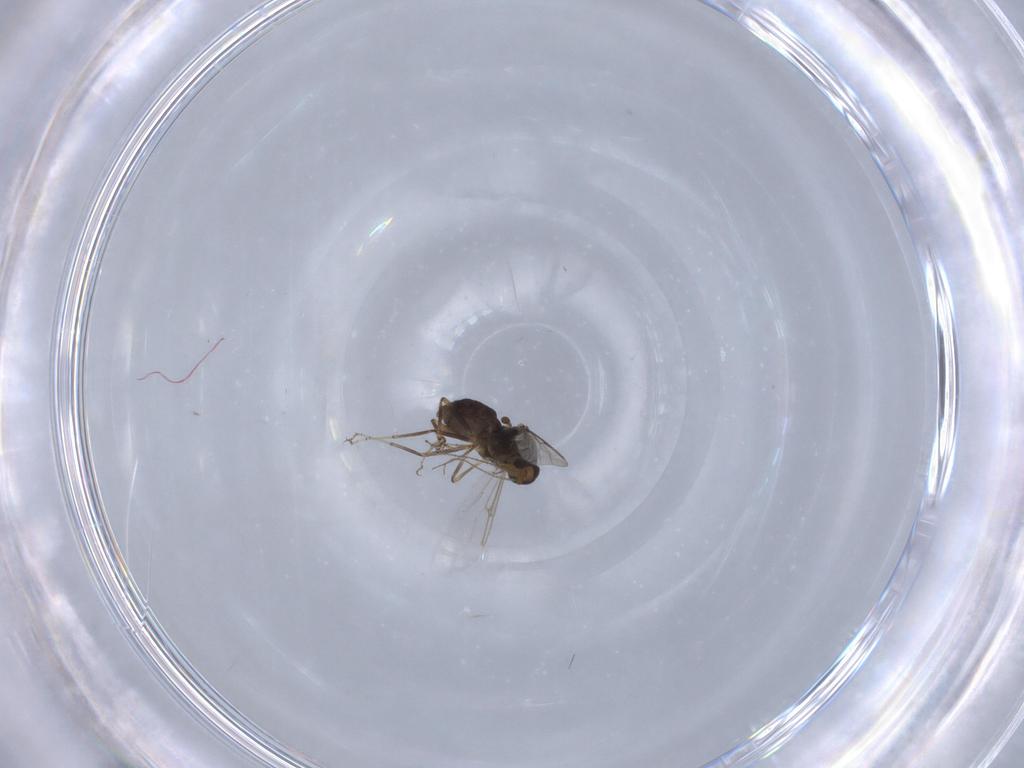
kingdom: Animalia
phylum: Arthropoda
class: Insecta
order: Diptera
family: Ceratopogonidae
